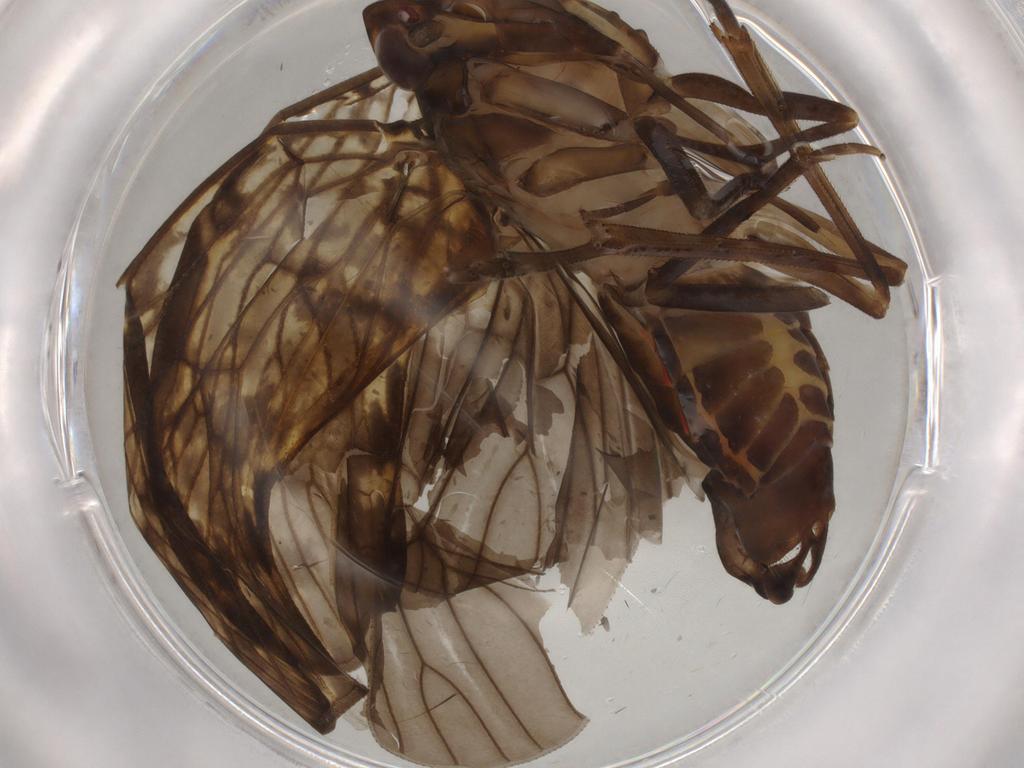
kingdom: Animalia
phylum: Arthropoda
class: Insecta
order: Hemiptera
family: Cixiidae
